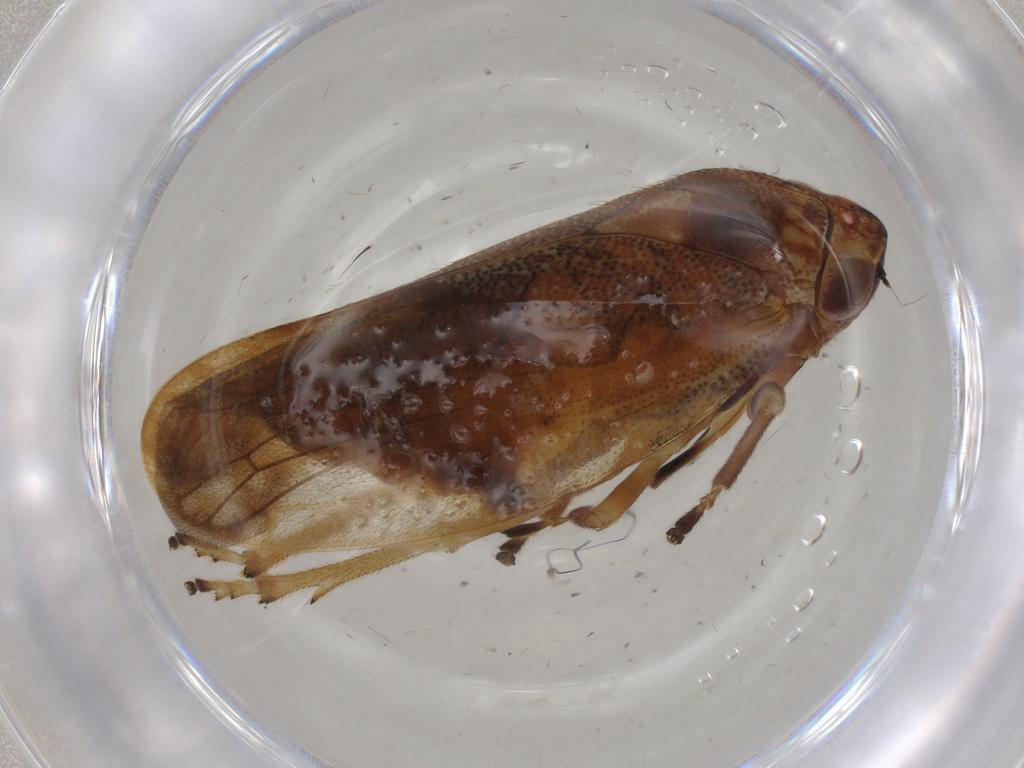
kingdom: Animalia
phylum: Arthropoda
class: Insecta
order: Hemiptera
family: Aphrophoridae
